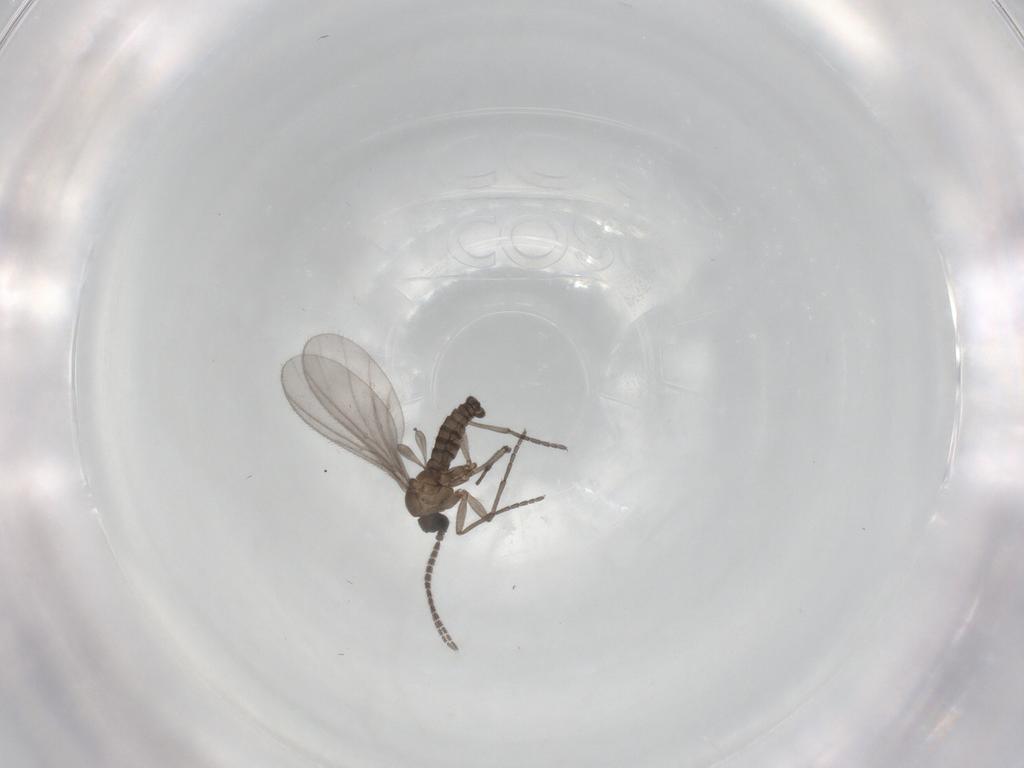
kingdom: Animalia
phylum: Arthropoda
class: Insecta
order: Diptera
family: Sciaridae
